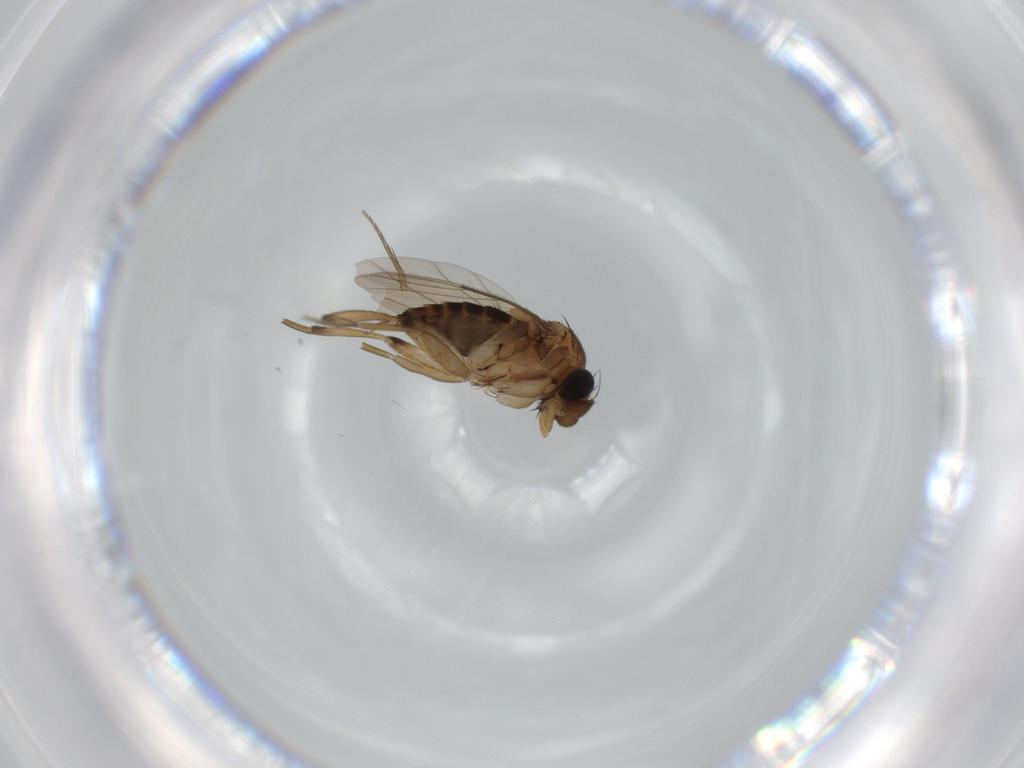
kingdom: Animalia
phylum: Arthropoda
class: Insecta
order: Diptera
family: Phoridae
